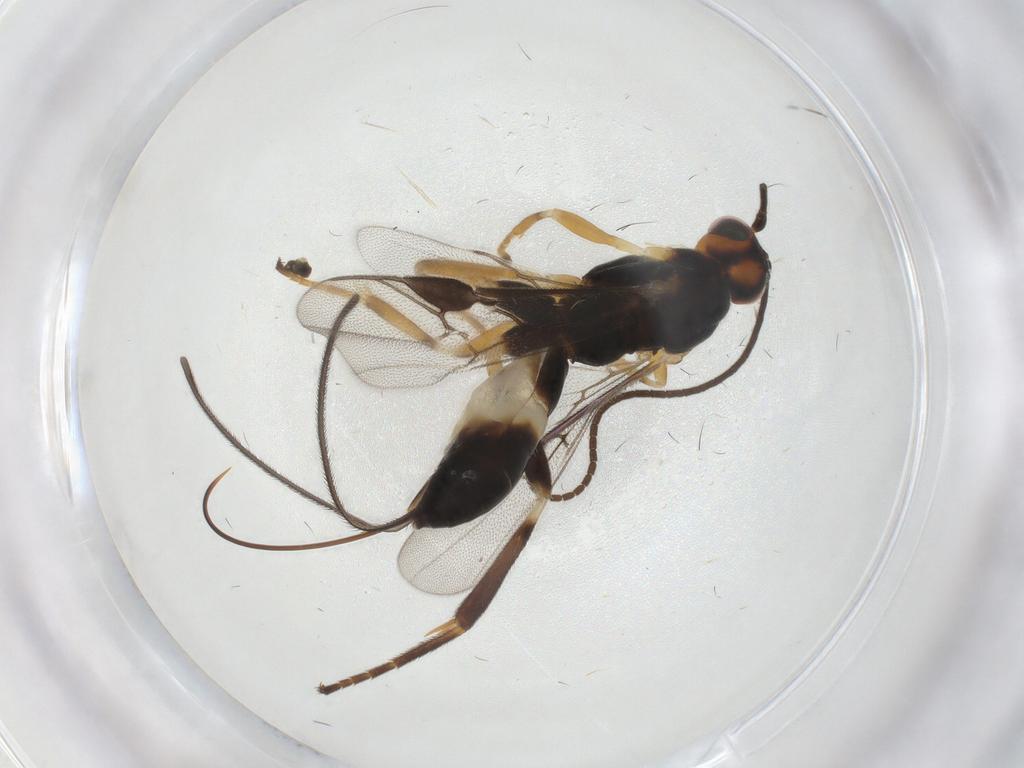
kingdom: Animalia
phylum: Arthropoda
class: Insecta
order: Hymenoptera
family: Braconidae
